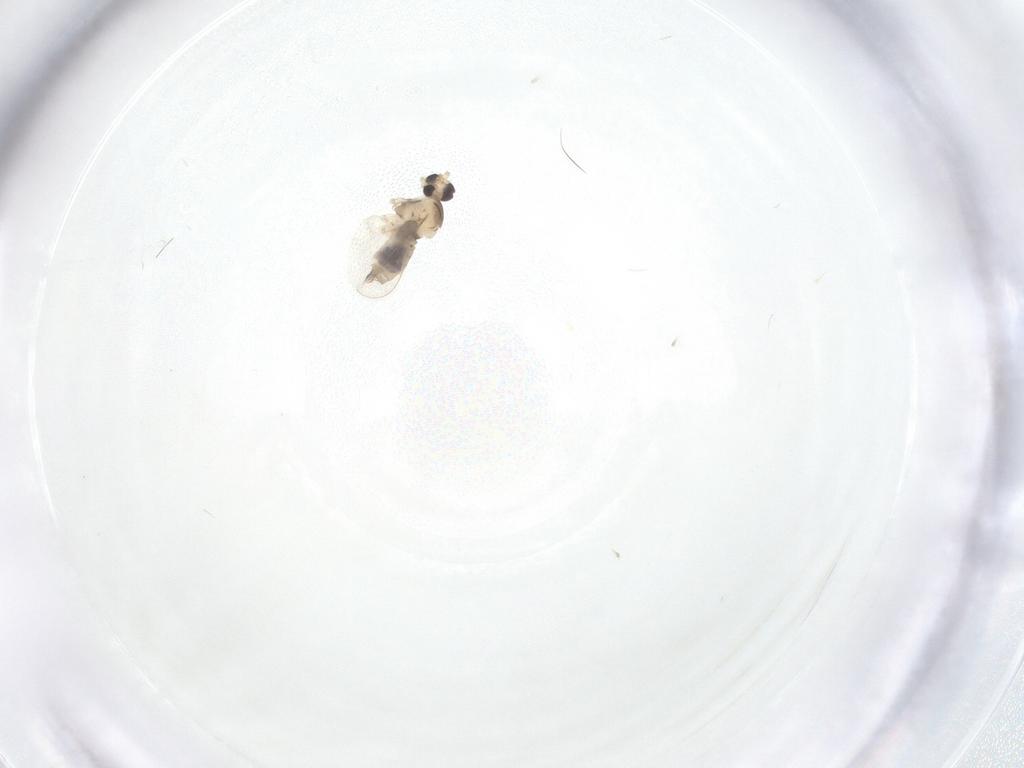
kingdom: Animalia
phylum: Arthropoda
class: Insecta
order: Diptera
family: Cecidomyiidae
